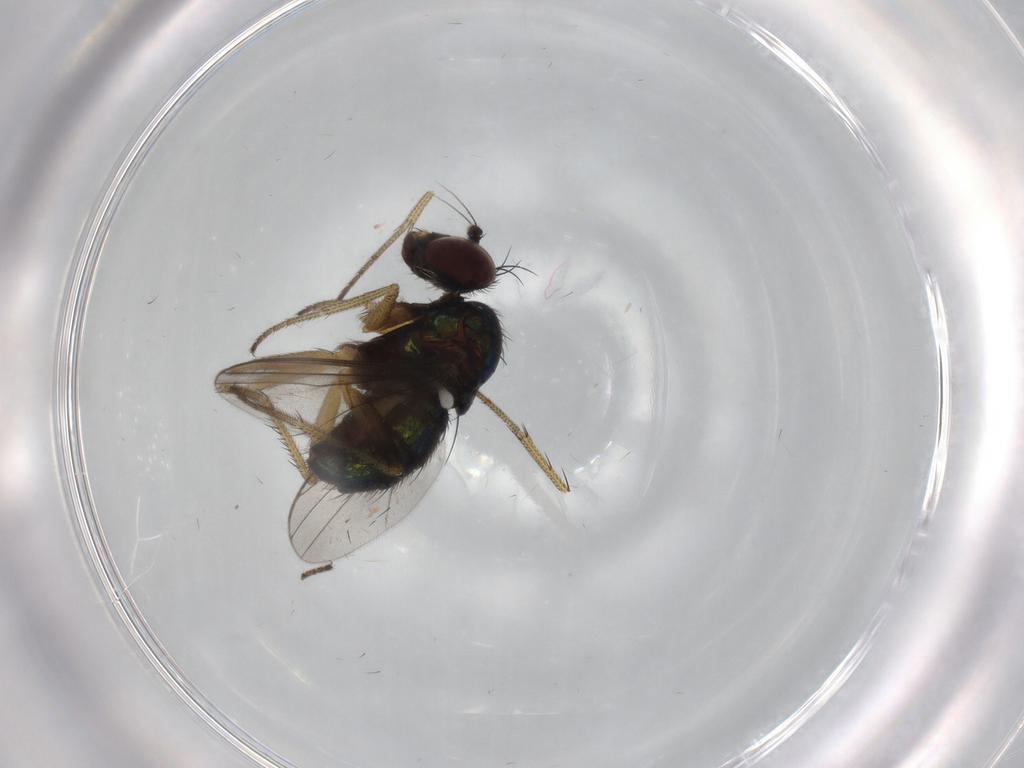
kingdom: Animalia
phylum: Arthropoda
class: Insecta
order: Diptera
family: Dolichopodidae
